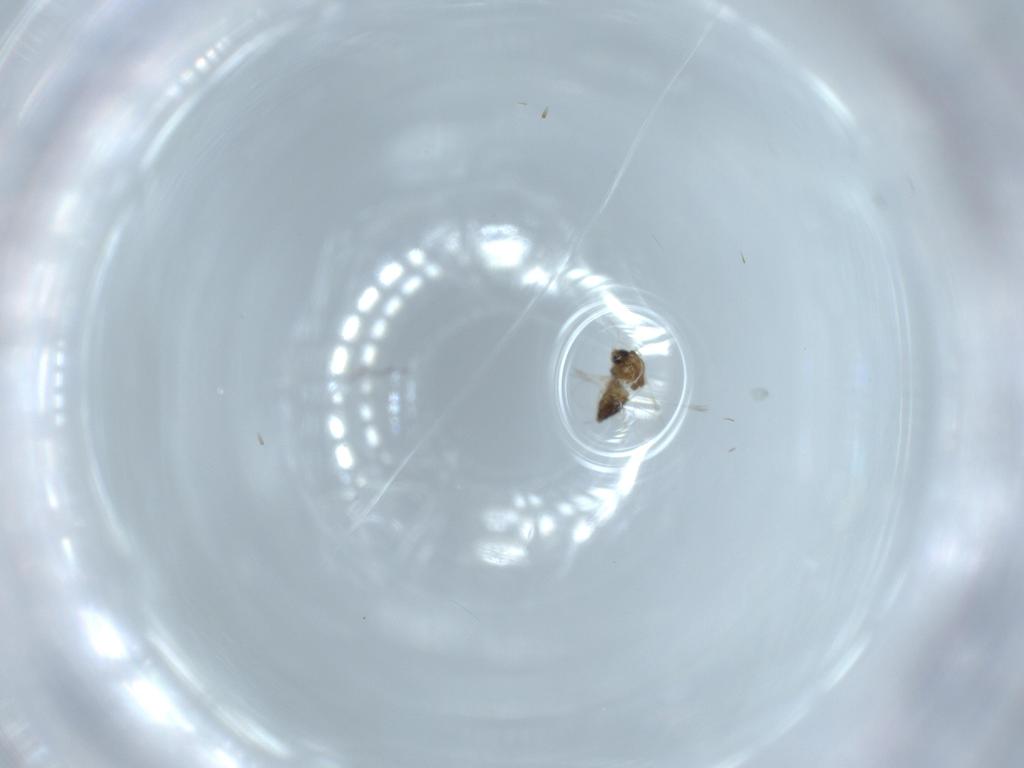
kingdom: Animalia
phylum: Arthropoda
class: Insecta
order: Diptera
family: Chironomidae
